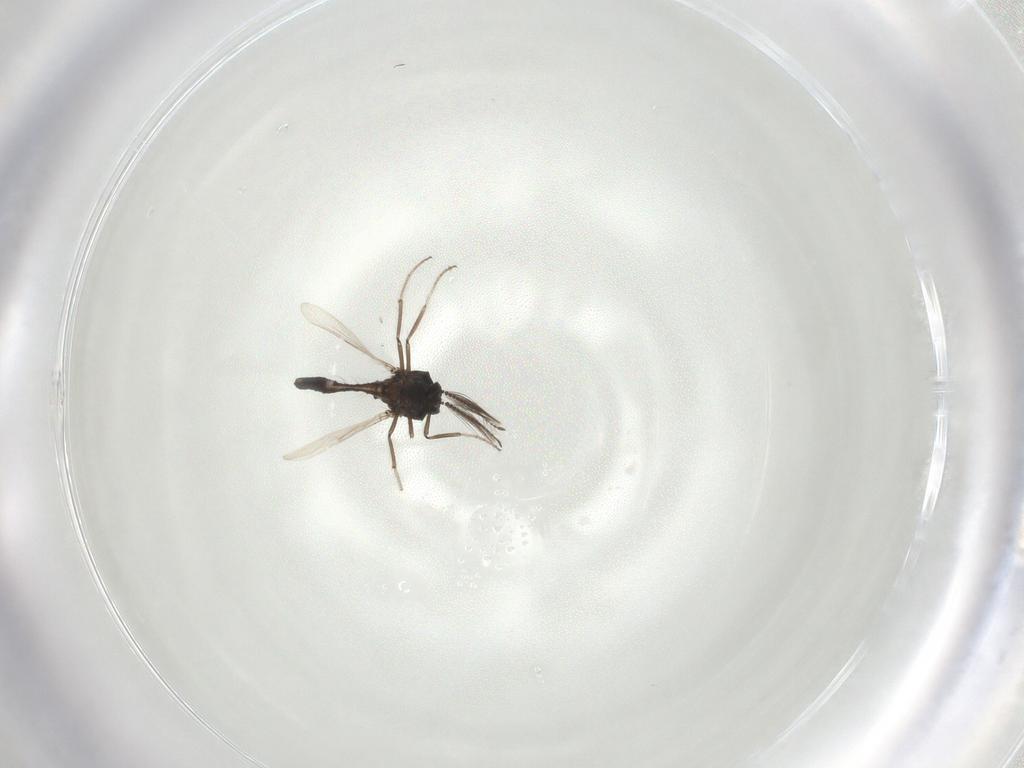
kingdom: Animalia
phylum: Arthropoda
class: Insecta
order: Diptera
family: Ceratopogonidae
